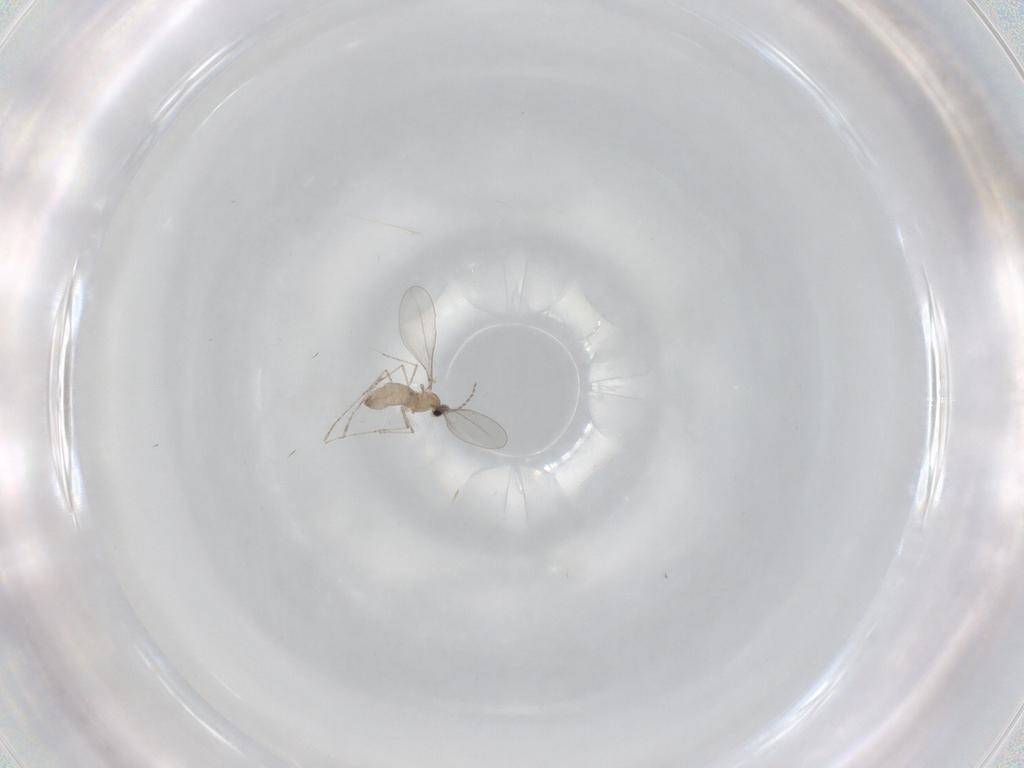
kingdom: Animalia
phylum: Arthropoda
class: Insecta
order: Diptera
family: Cecidomyiidae
